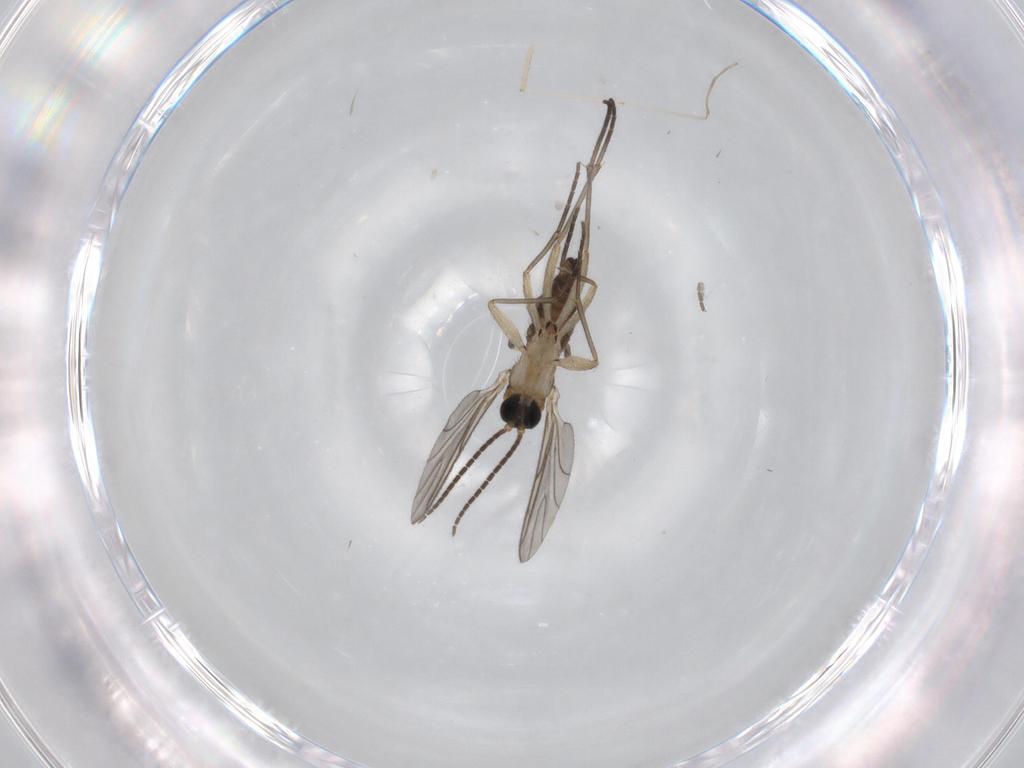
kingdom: Animalia
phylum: Arthropoda
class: Insecta
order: Diptera
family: Sciaridae
